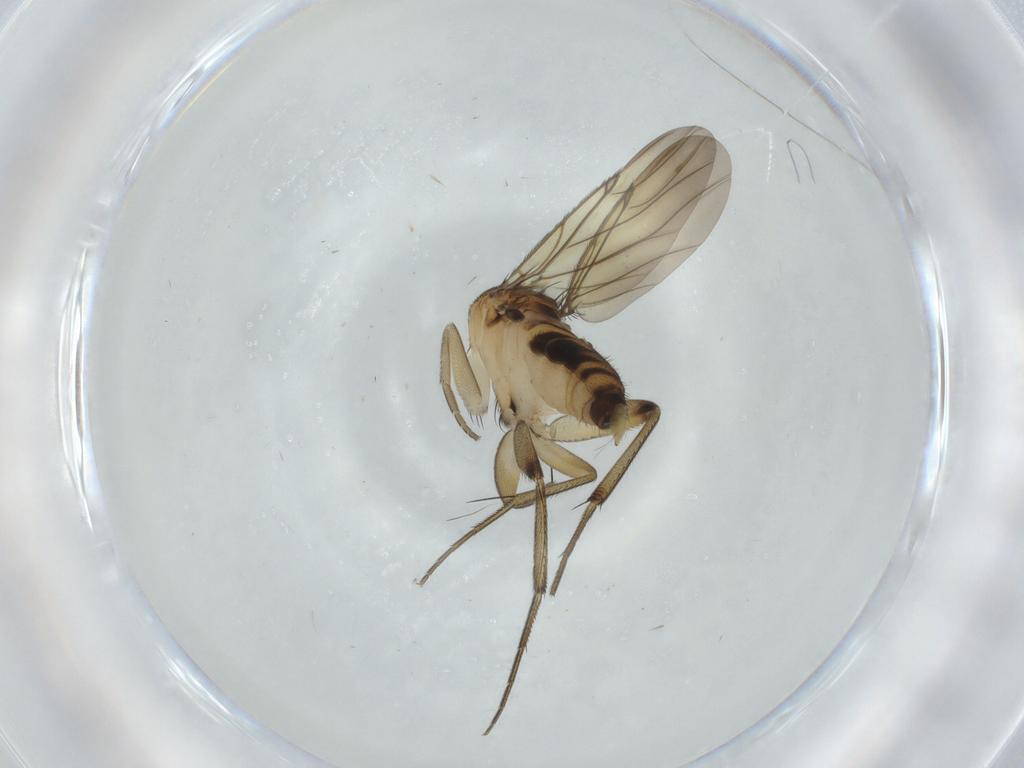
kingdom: Animalia
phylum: Arthropoda
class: Insecta
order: Diptera
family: Phoridae
